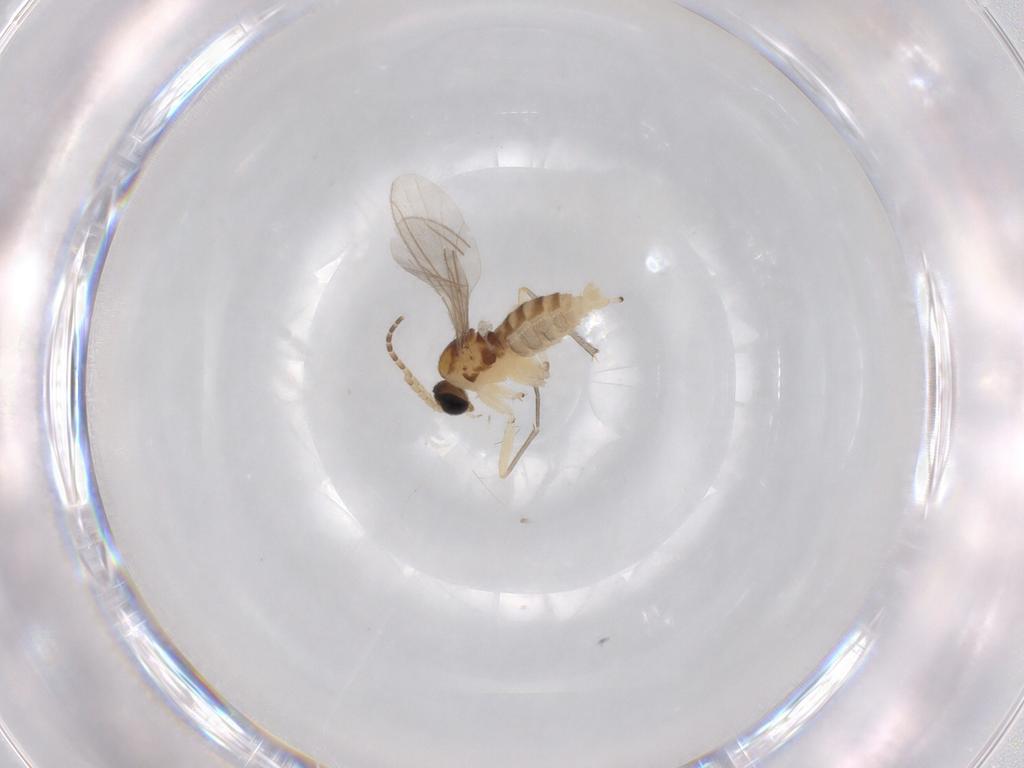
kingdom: Animalia
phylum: Arthropoda
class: Insecta
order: Diptera
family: Sciaridae
